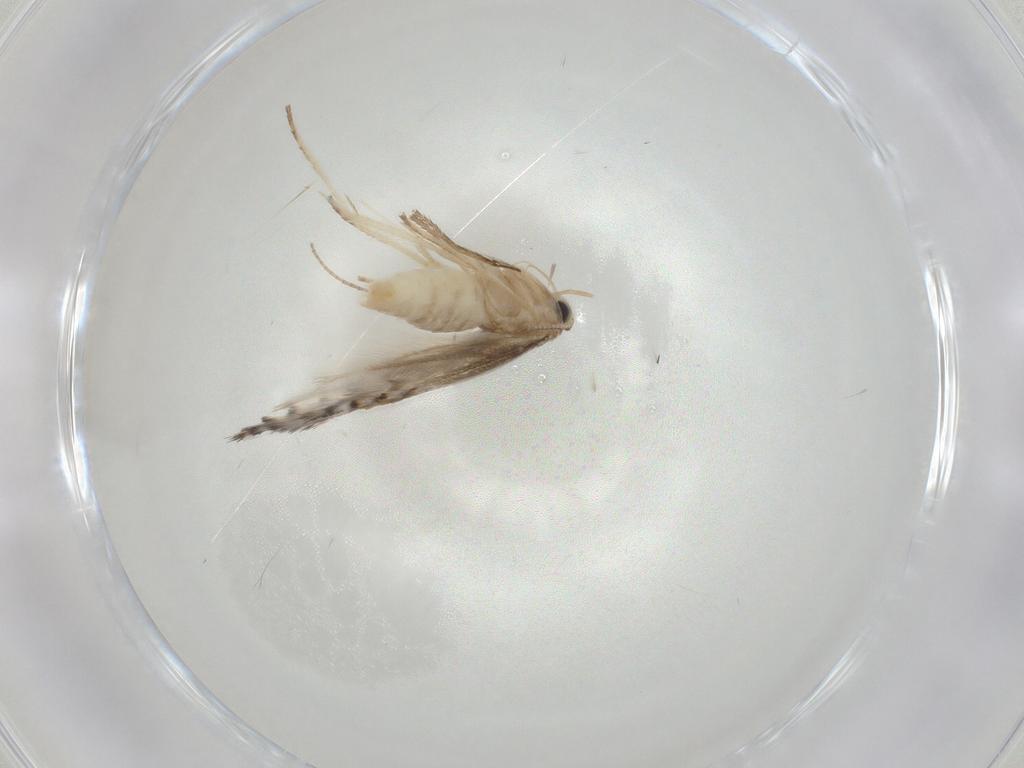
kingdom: Animalia
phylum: Arthropoda
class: Insecta
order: Lepidoptera
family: Gracillariidae
